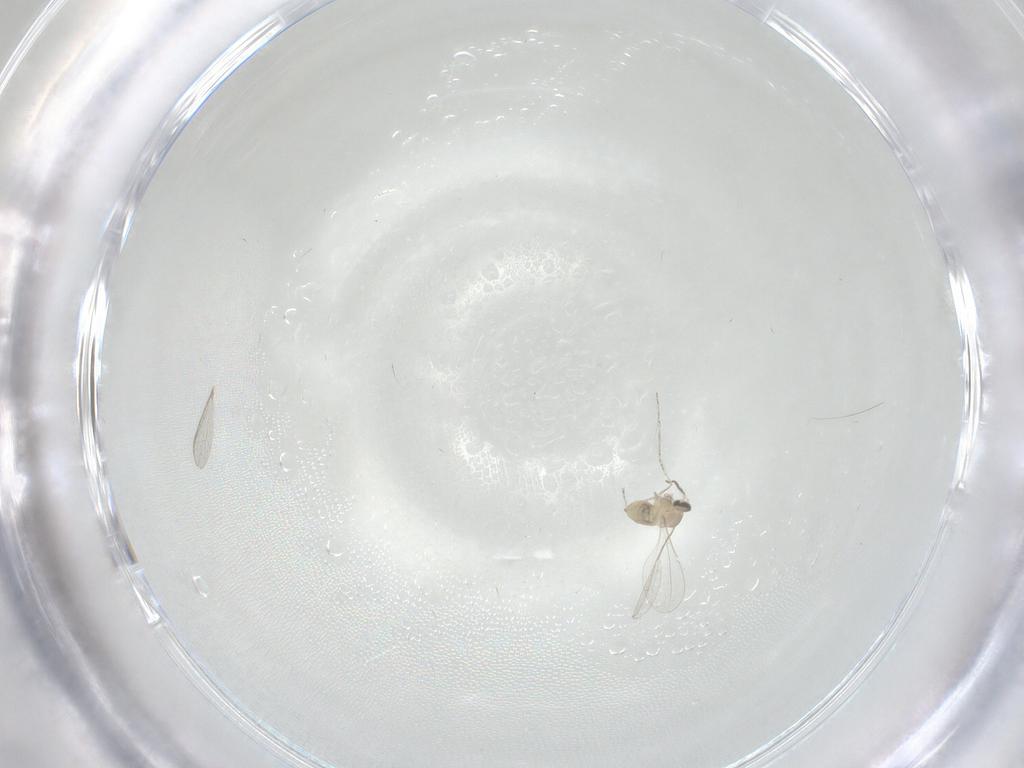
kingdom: Animalia
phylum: Arthropoda
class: Insecta
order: Diptera
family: Cecidomyiidae
